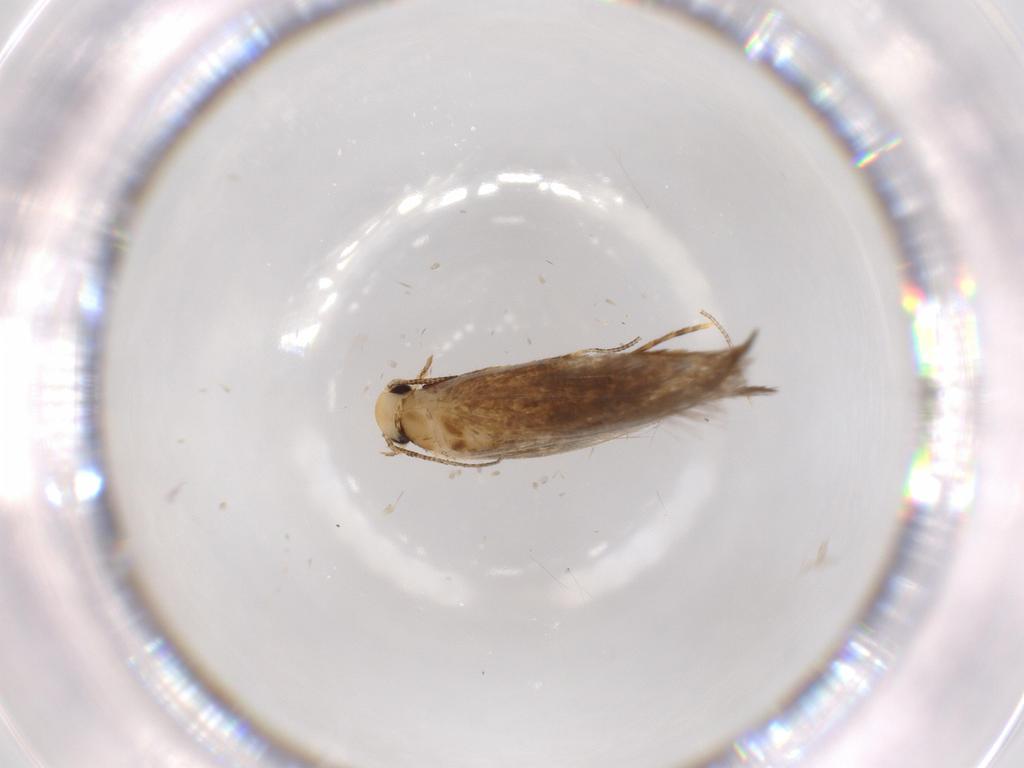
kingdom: Animalia
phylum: Arthropoda
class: Insecta
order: Lepidoptera
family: Tineidae
